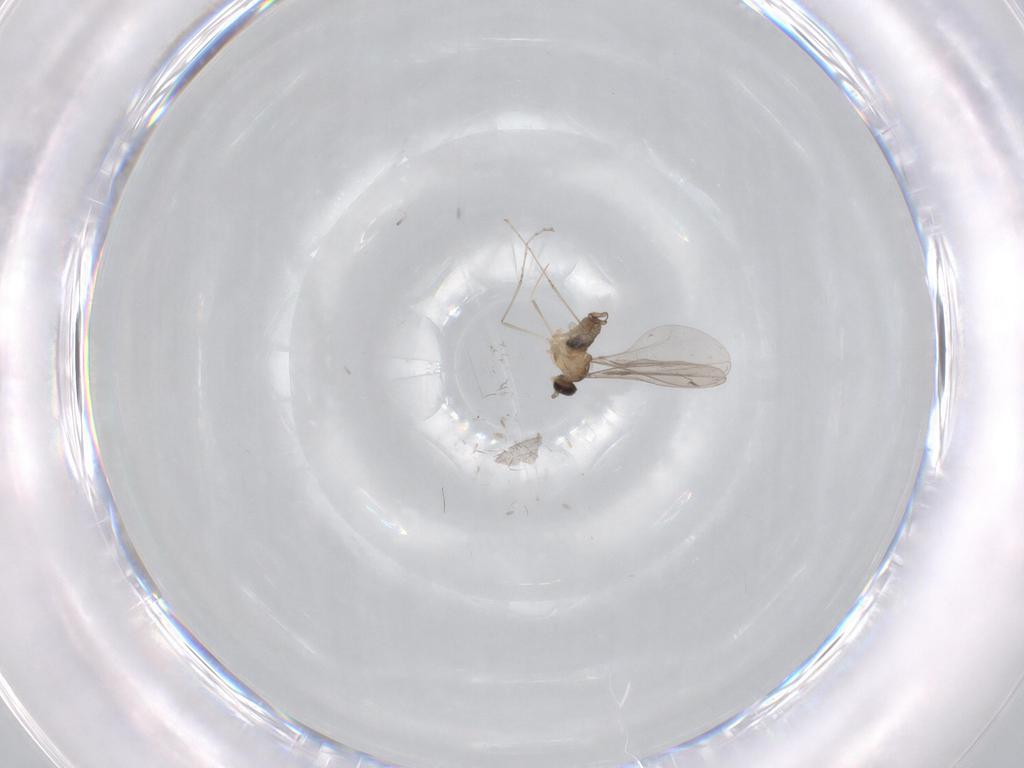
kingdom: Animalia
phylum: Arthropoda
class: Insecta
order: Diptera
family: Cecidomyiidae
